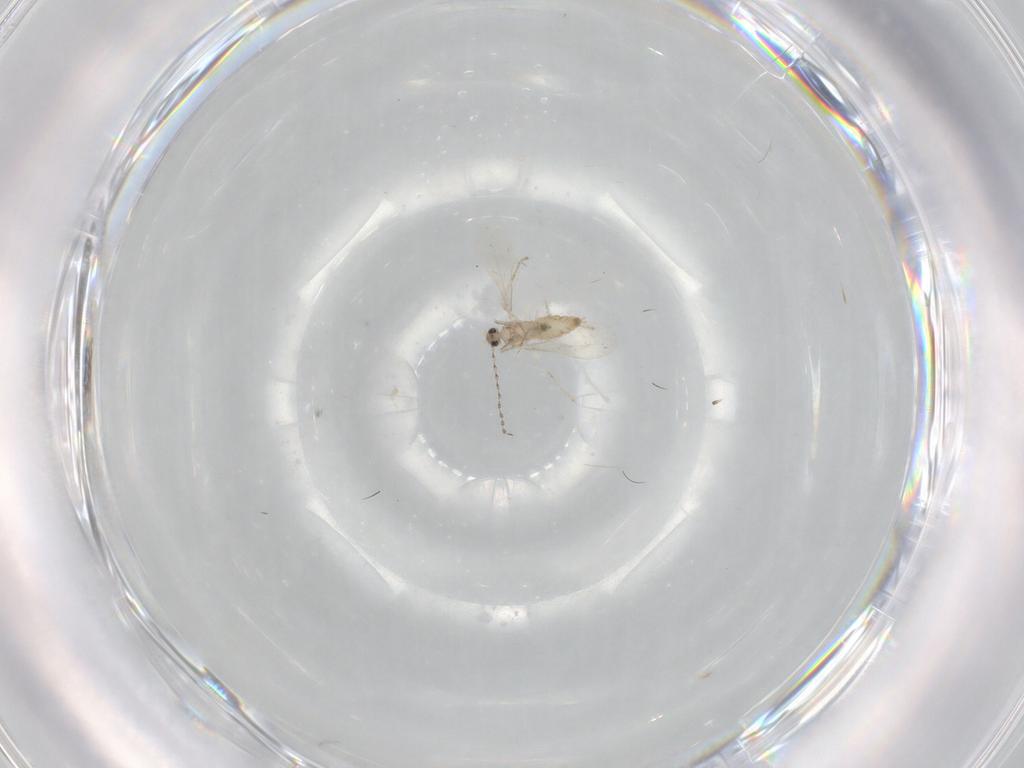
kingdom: Animalia
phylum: Arthropoda
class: Insecta
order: Diptera
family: Cecidomyiidae
